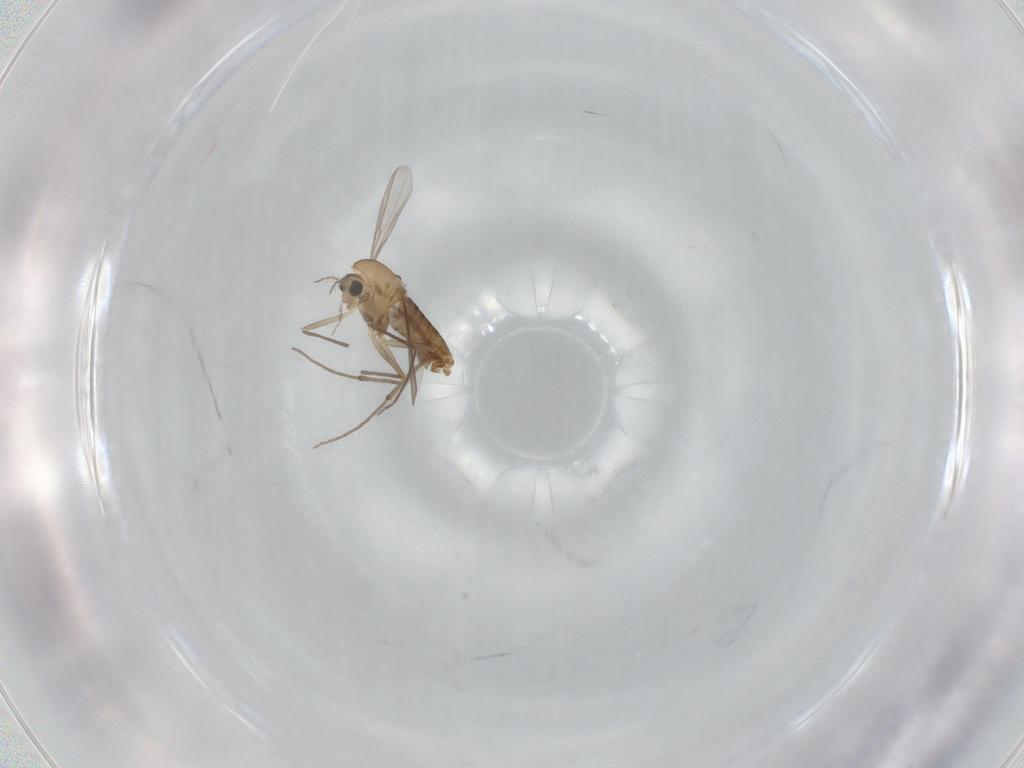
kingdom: Animalia
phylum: Arthropoda
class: Insecta
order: Diptera
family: Chironomidae
